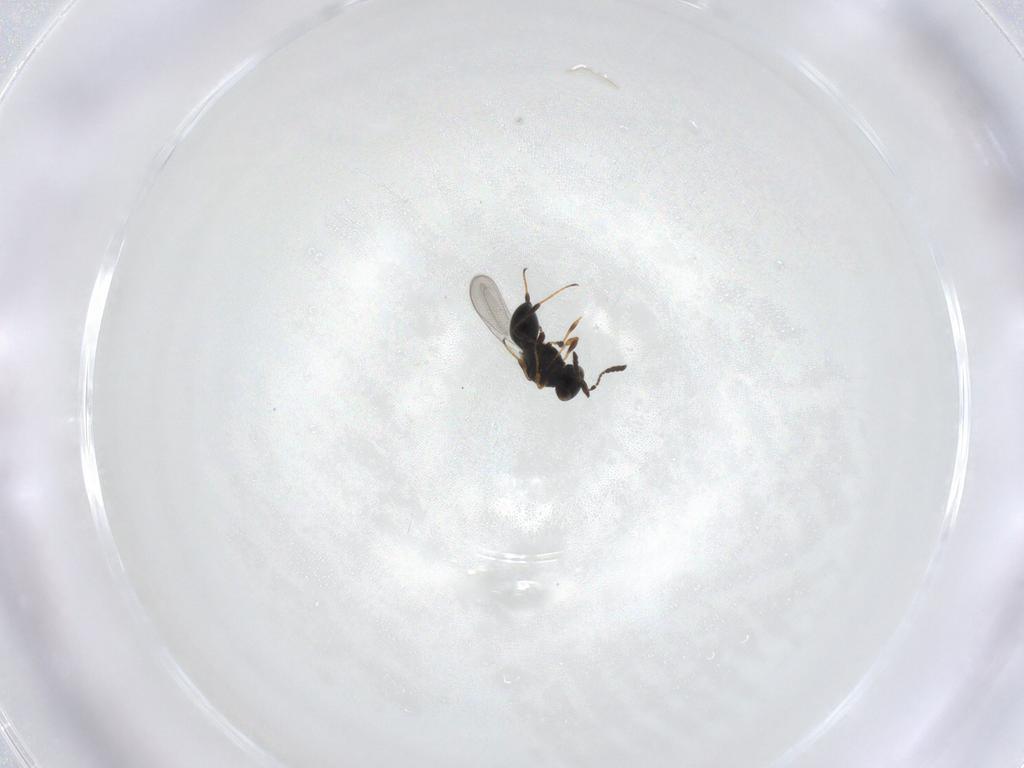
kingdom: Animalia
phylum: Arthropoda
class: Insecta
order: Hymenoptera
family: Platygastridae
